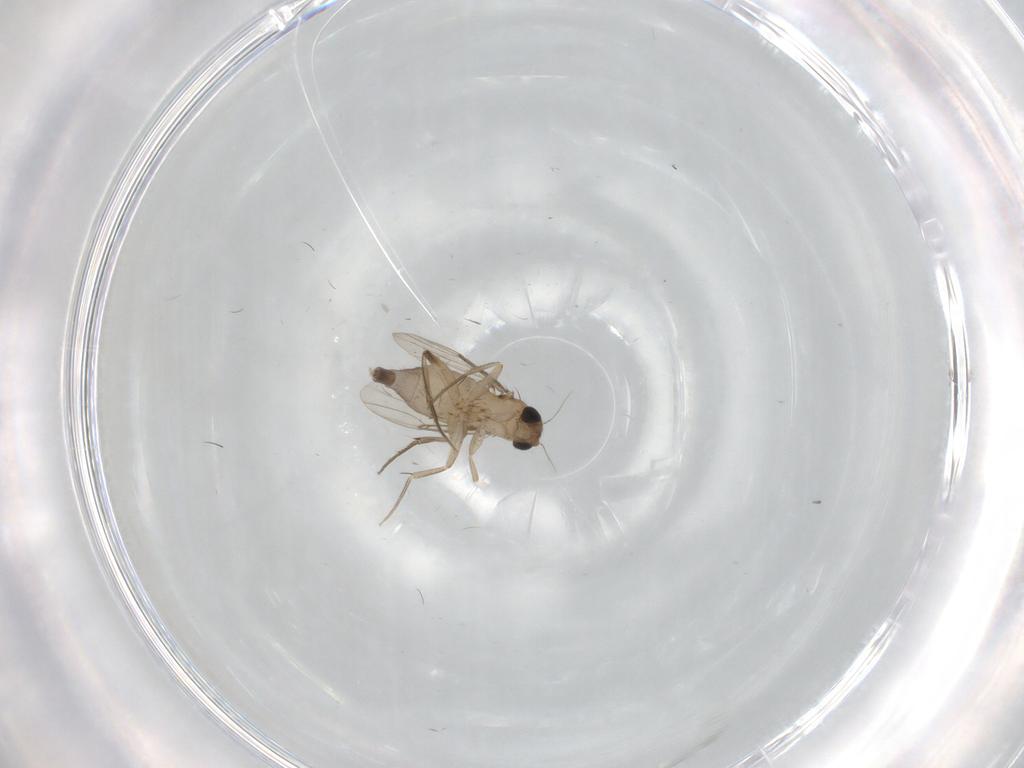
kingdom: Animalia
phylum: Arthropoda
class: Insecta
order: Diptera
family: Phoridae
